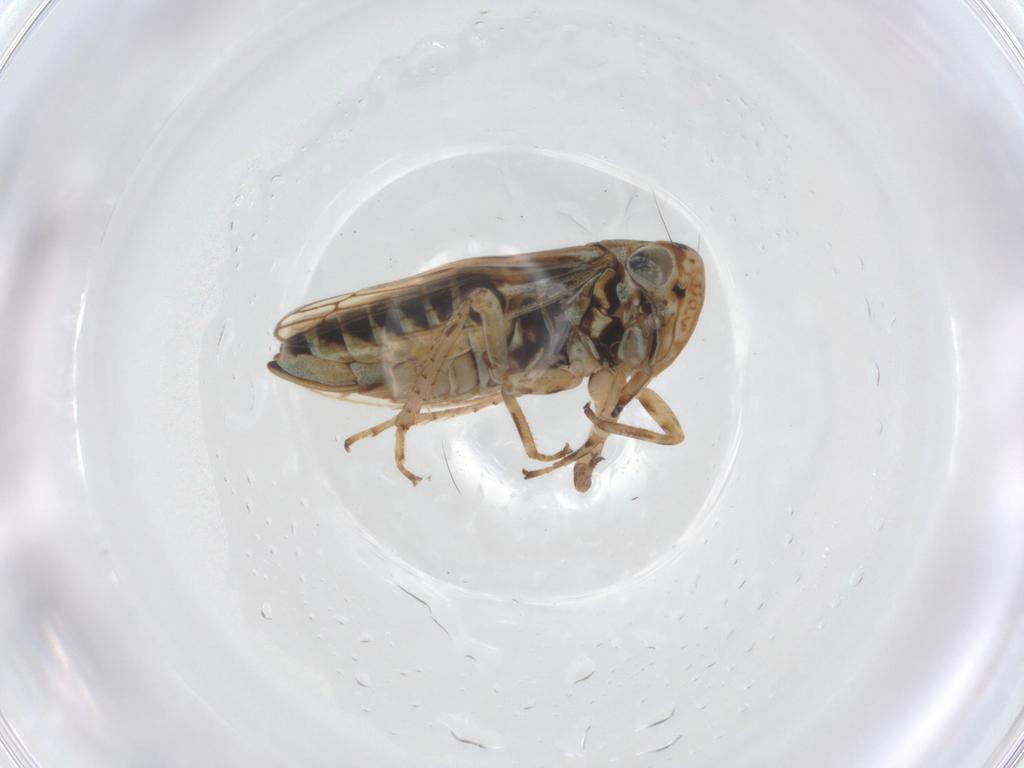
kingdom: Animalia
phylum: Arthropoda
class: Insecta
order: Hemiptera
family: Cicadellidae
